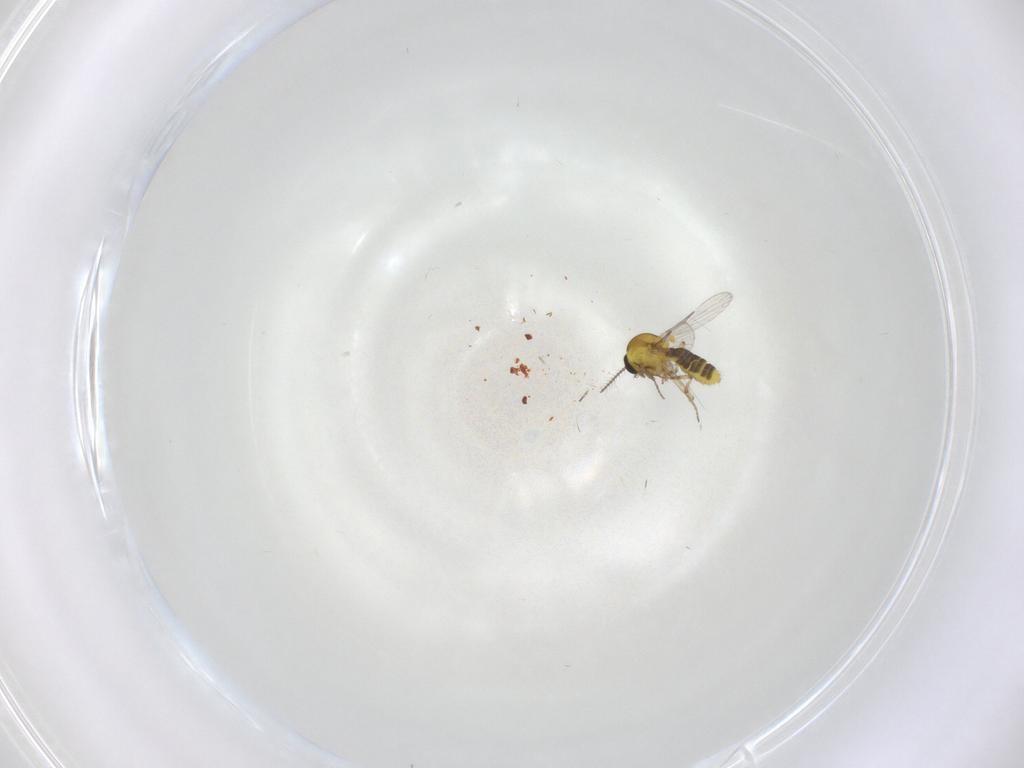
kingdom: Animalia
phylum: Arthropoda
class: Insecta
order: Diptera
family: Ceratopogonidae
